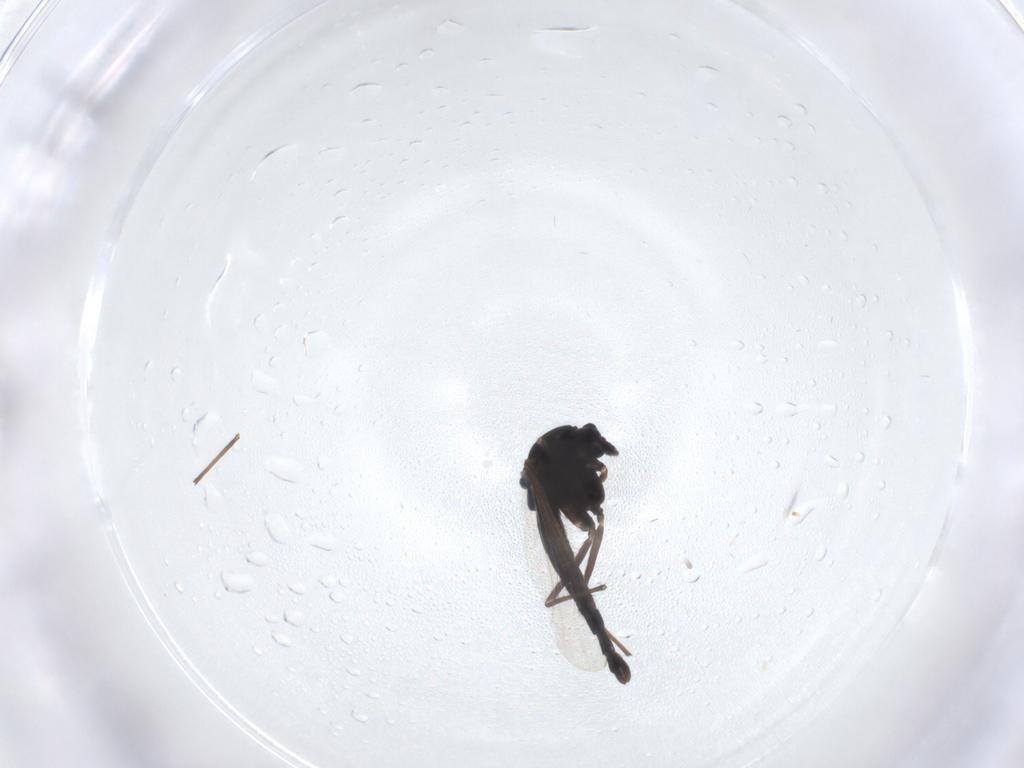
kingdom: Animalia
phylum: Arthropoda
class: Insecta
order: Diptera
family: Chironomidae
